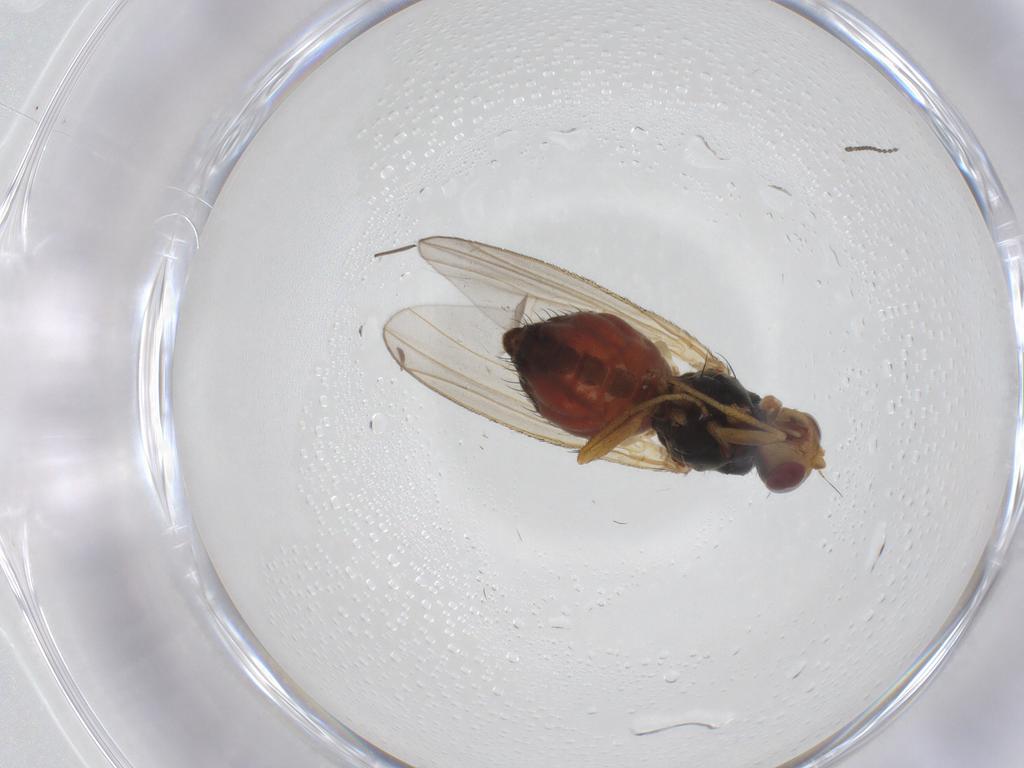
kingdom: Animalia
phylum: Arthropoda
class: Insecta
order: Diptera
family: Heleomyzidae
